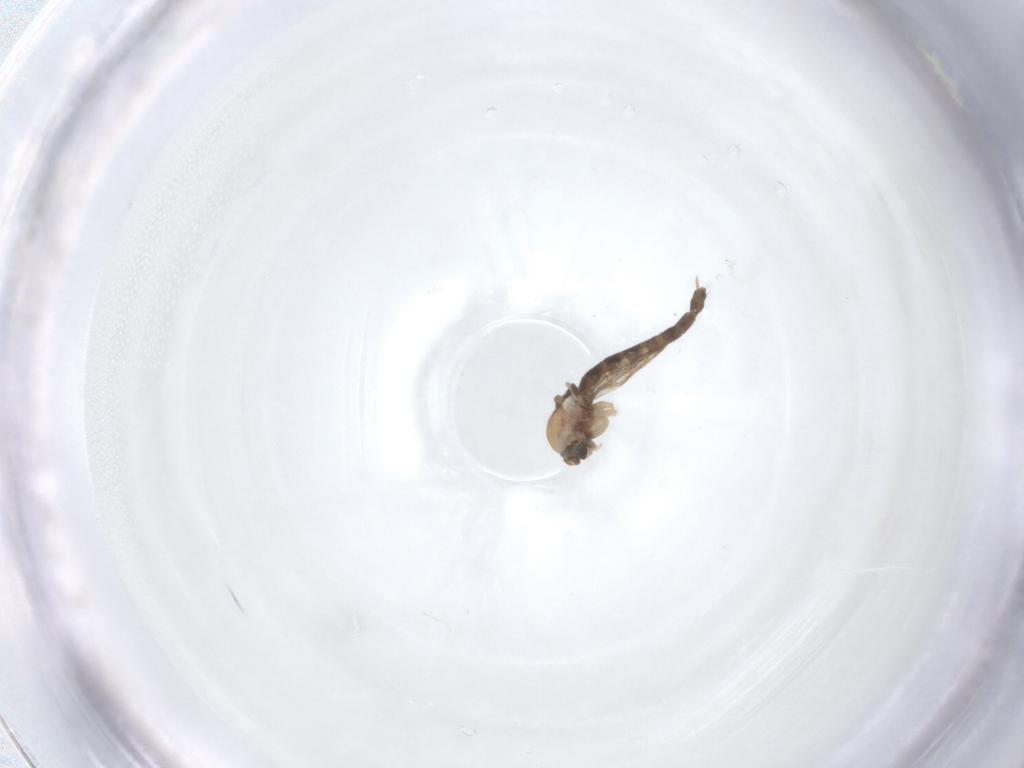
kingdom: Animalia
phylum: Arthropoda
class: Insecta
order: Diptera
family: Chironomidae
